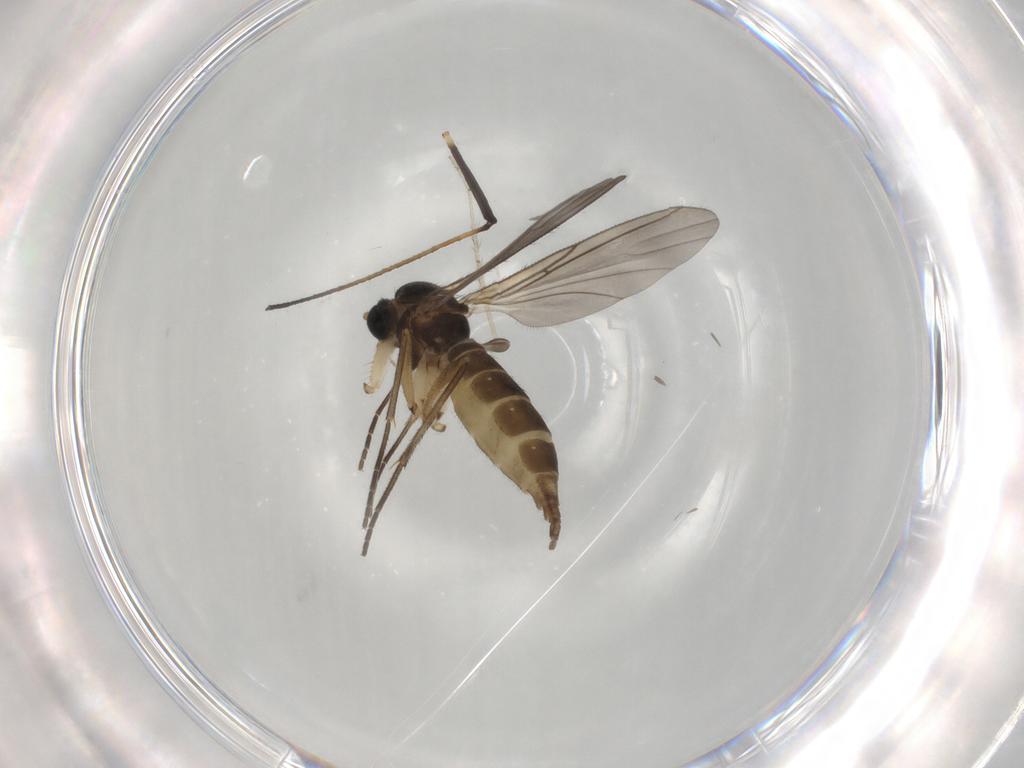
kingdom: Animalia
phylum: Arthropoda
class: Insecta
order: Diptera
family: Sciaridae
